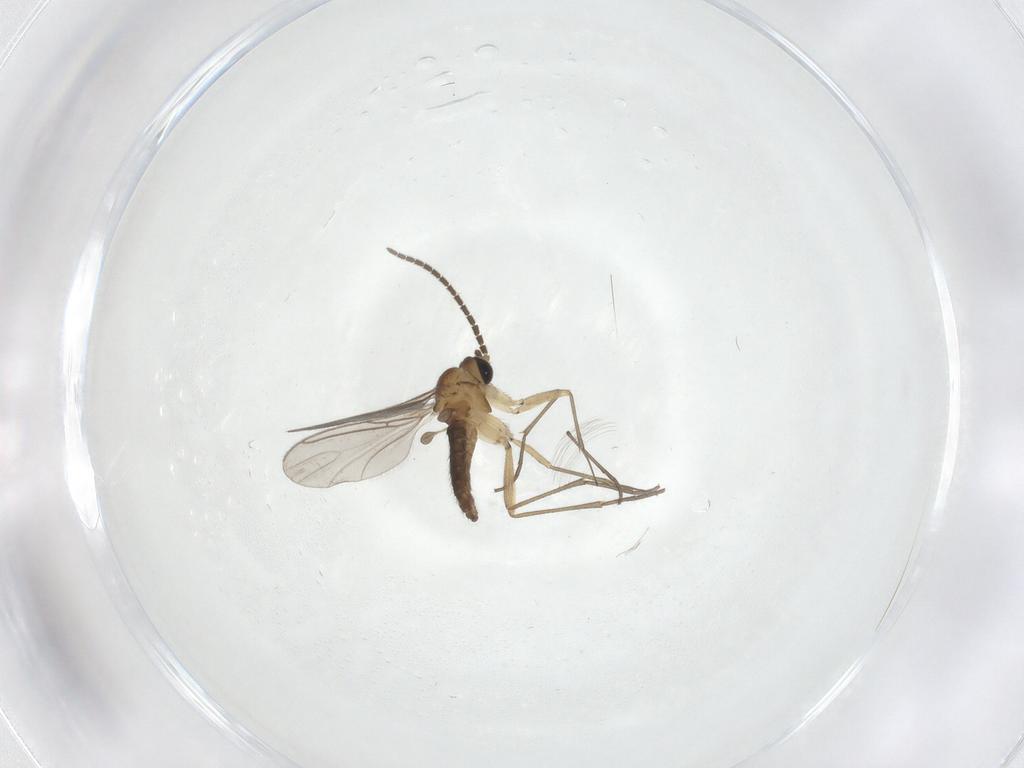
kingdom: Animalia
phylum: Arthropoda
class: Insecta
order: Diptera
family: Sciaridae
